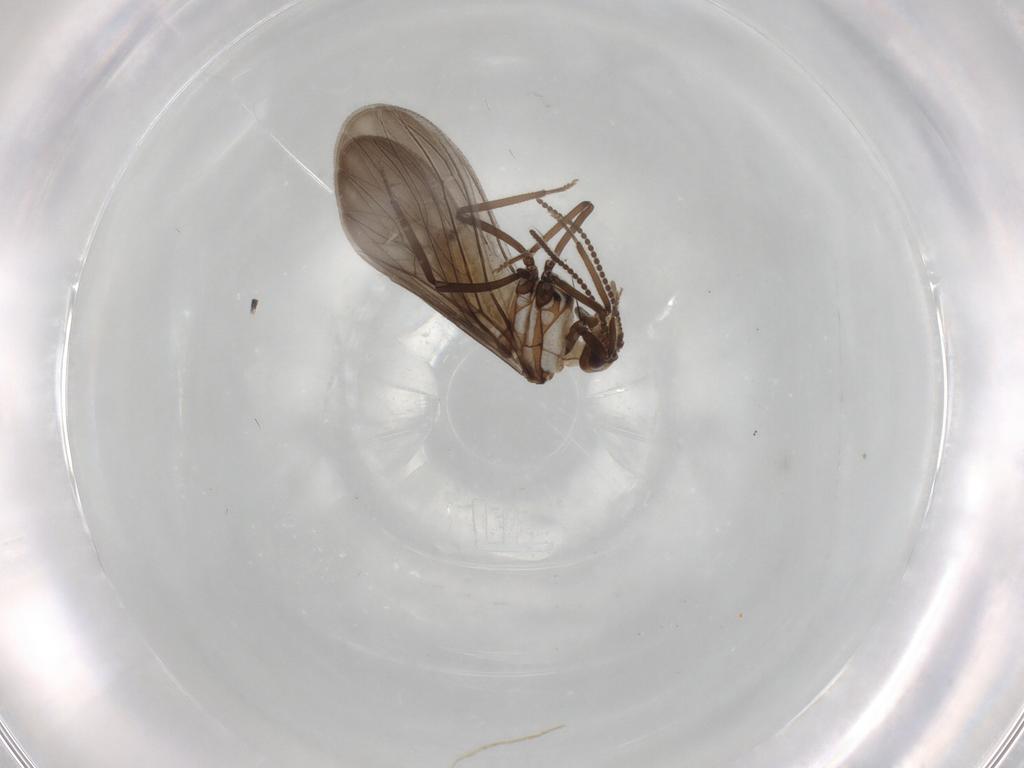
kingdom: Animalia
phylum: Arthropoda
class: Insecta
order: Neuroptera
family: Coniopterygidae
